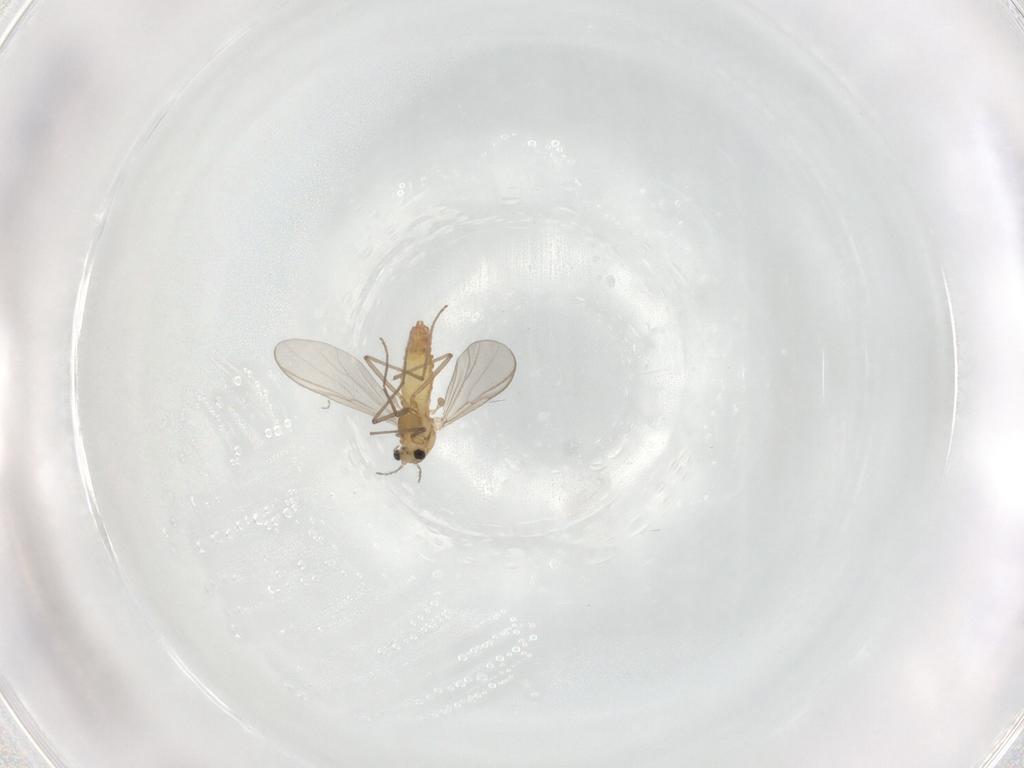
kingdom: Animalia
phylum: Arthropoda
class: Insecta
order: Diptera
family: Chironomidae
